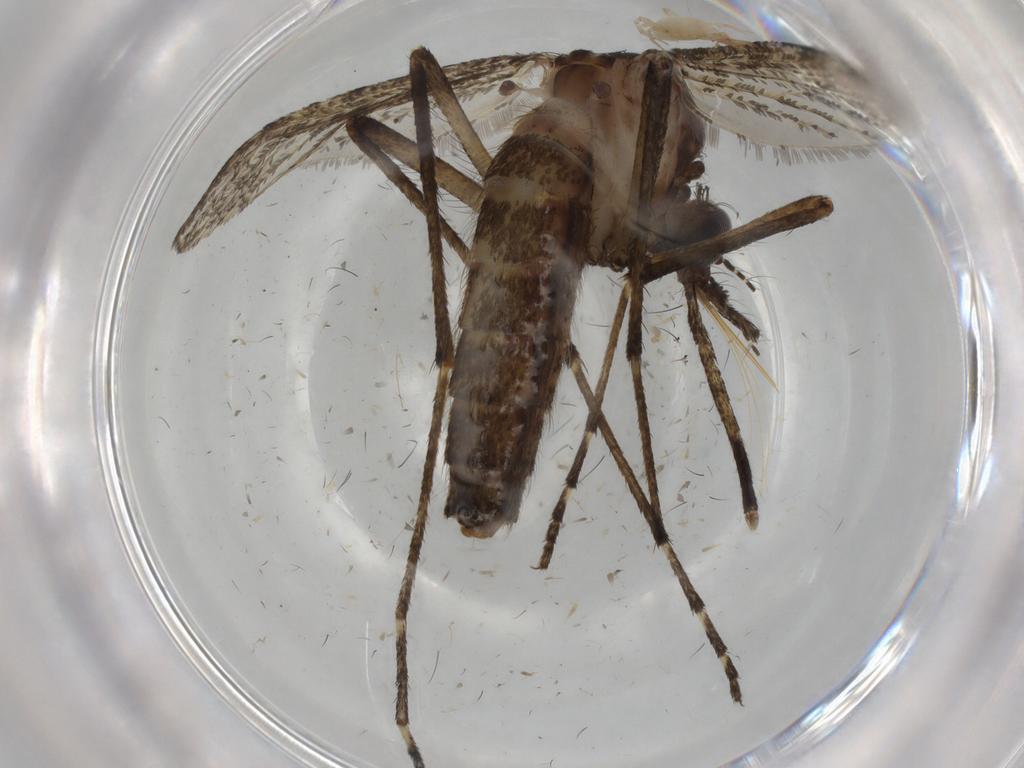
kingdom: Animalia
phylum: Arthropoda
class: Insecta
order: Diptera
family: Culicidae
